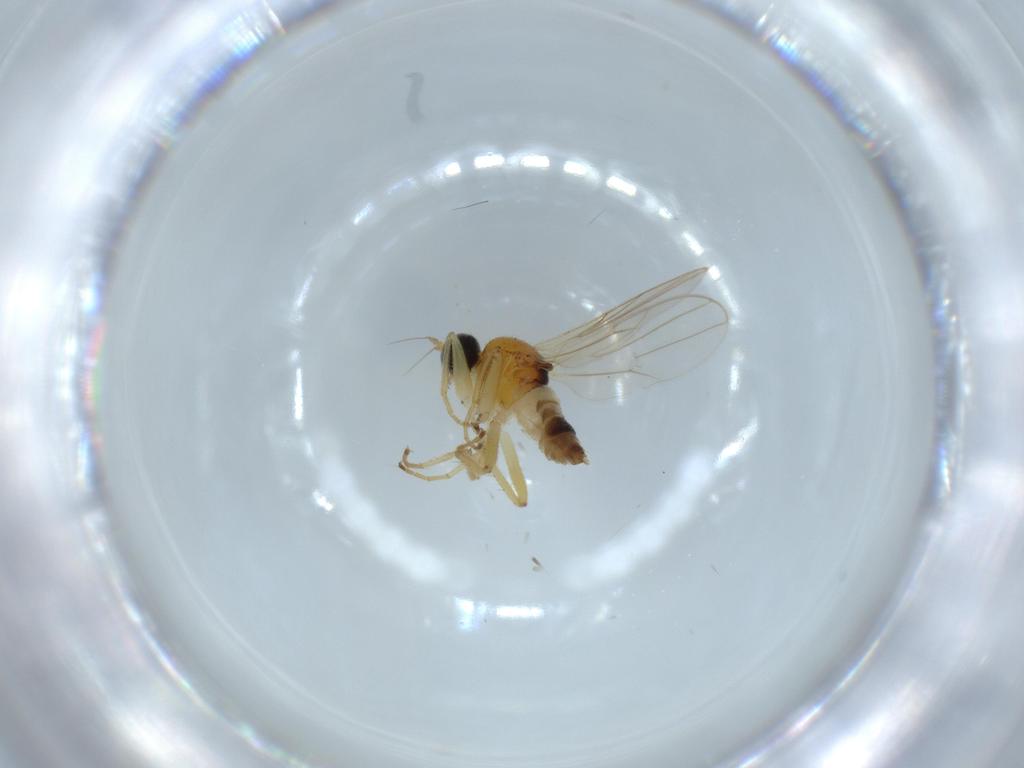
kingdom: Animalia
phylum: Arthropoda
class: Insecta
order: Diptera
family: Hybotidae
